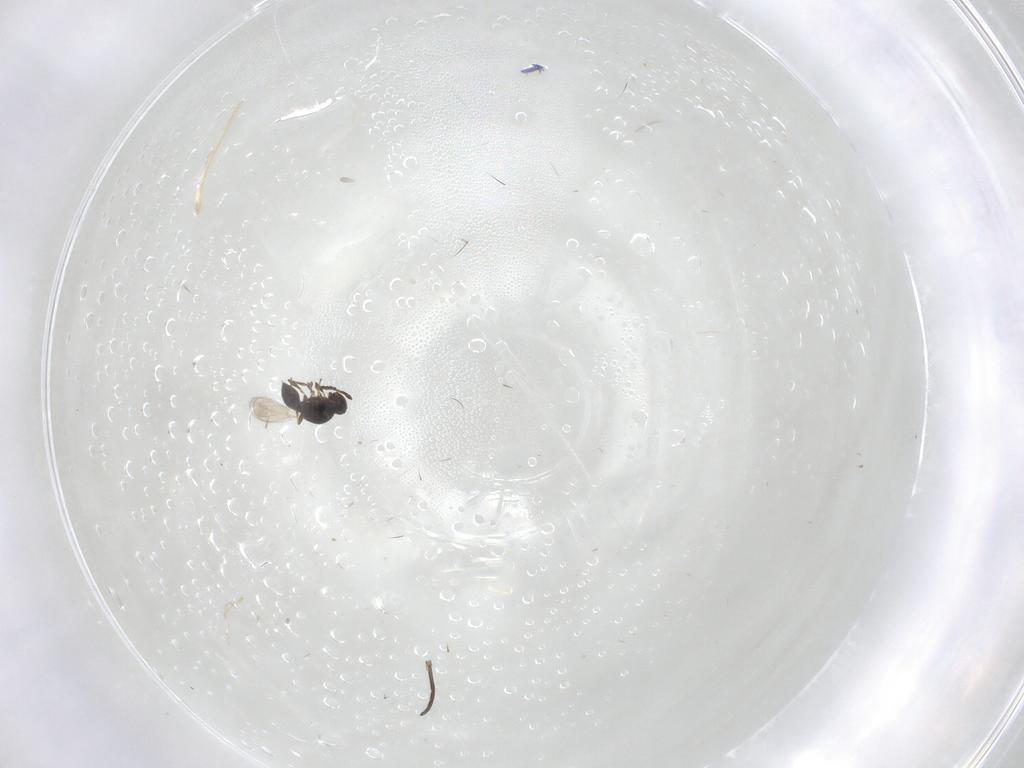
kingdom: Animalia
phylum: Arthropoda
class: Insecta
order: Hymenoptera
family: Platygastridae
